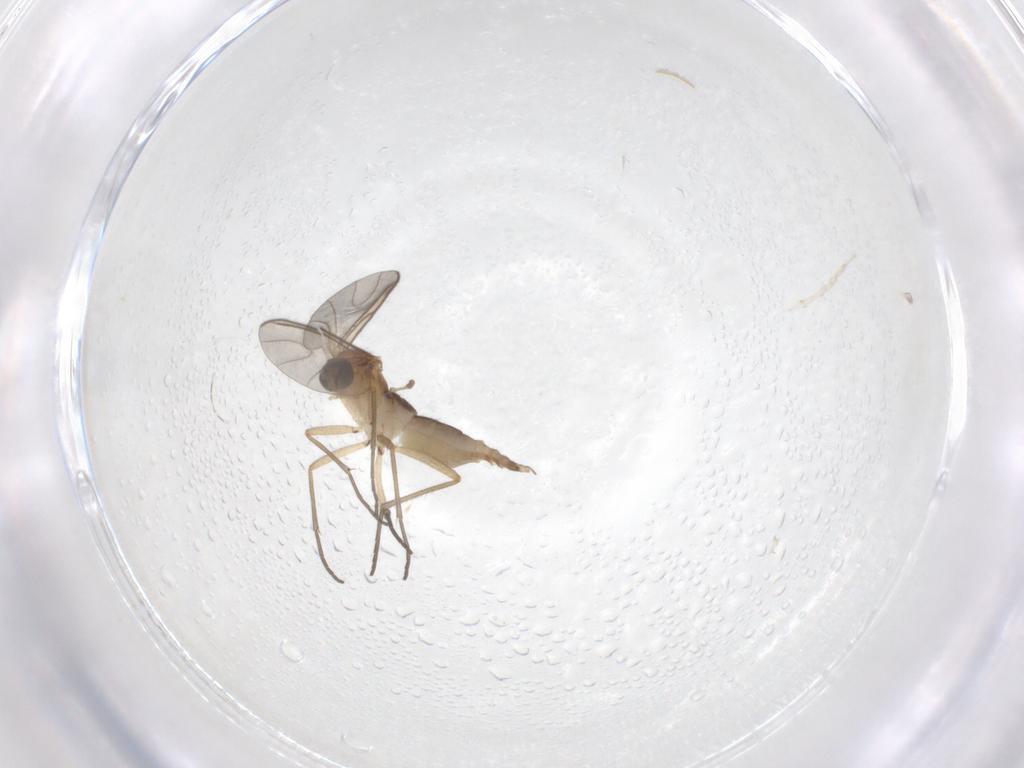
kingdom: Animalia
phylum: Arthropoda
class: Insecta
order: Diptera
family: Sciaridae
